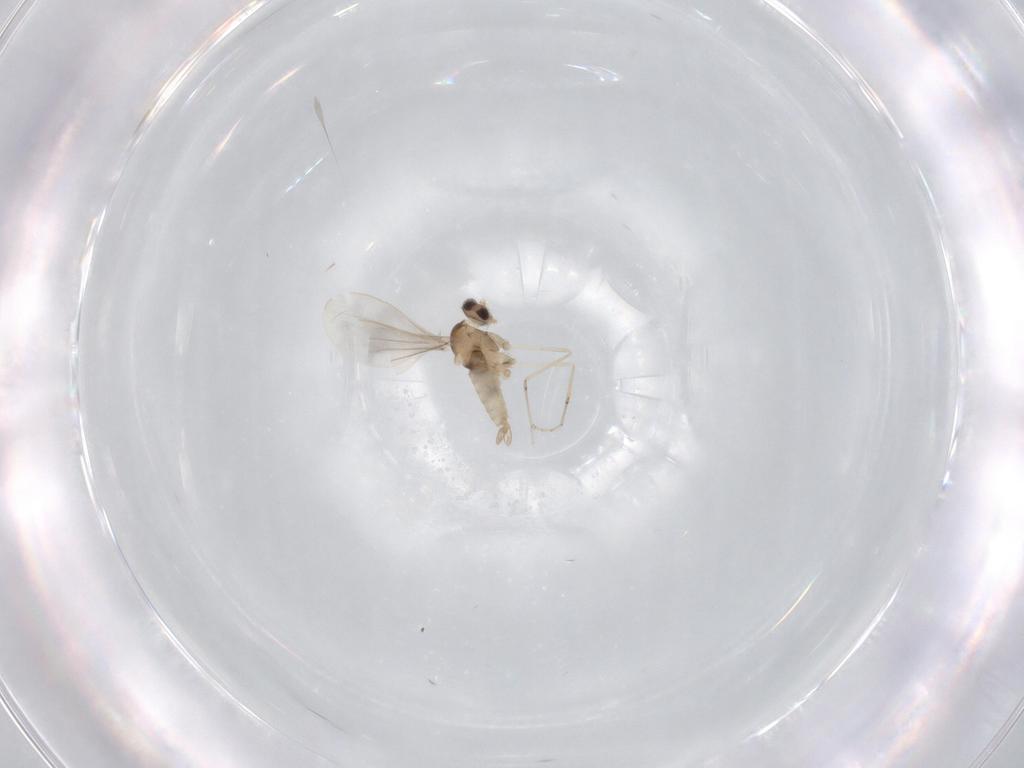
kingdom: Animalia
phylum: Arthropoda
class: Insecta
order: Diptera
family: Cecidomyiidae
